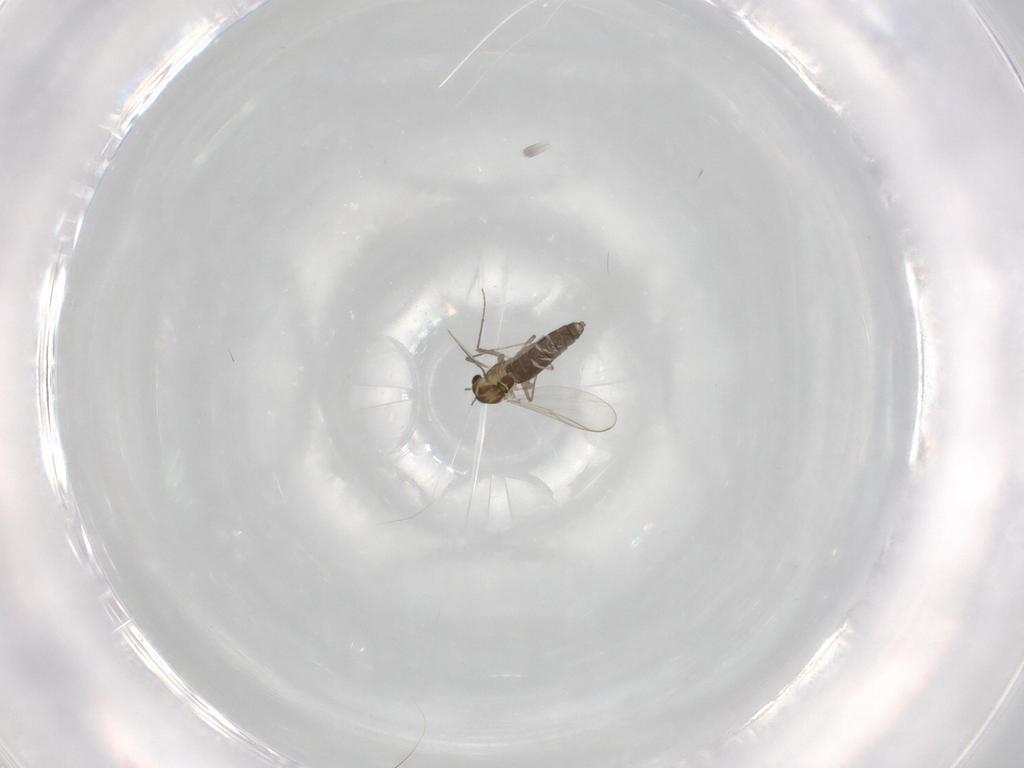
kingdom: Animalia
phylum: Arthropoda
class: Insecta
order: Diptera
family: Chironomidae
